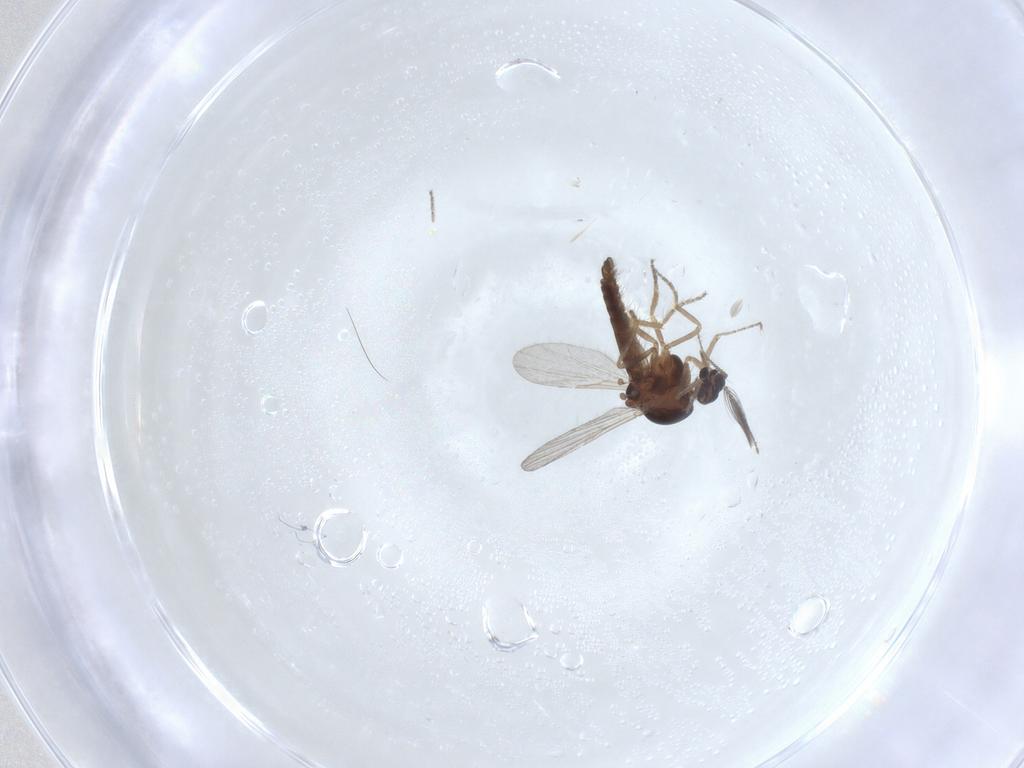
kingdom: Animalia
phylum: Arthropoda
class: Insecta
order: Diptera
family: Ceratopogonidae
